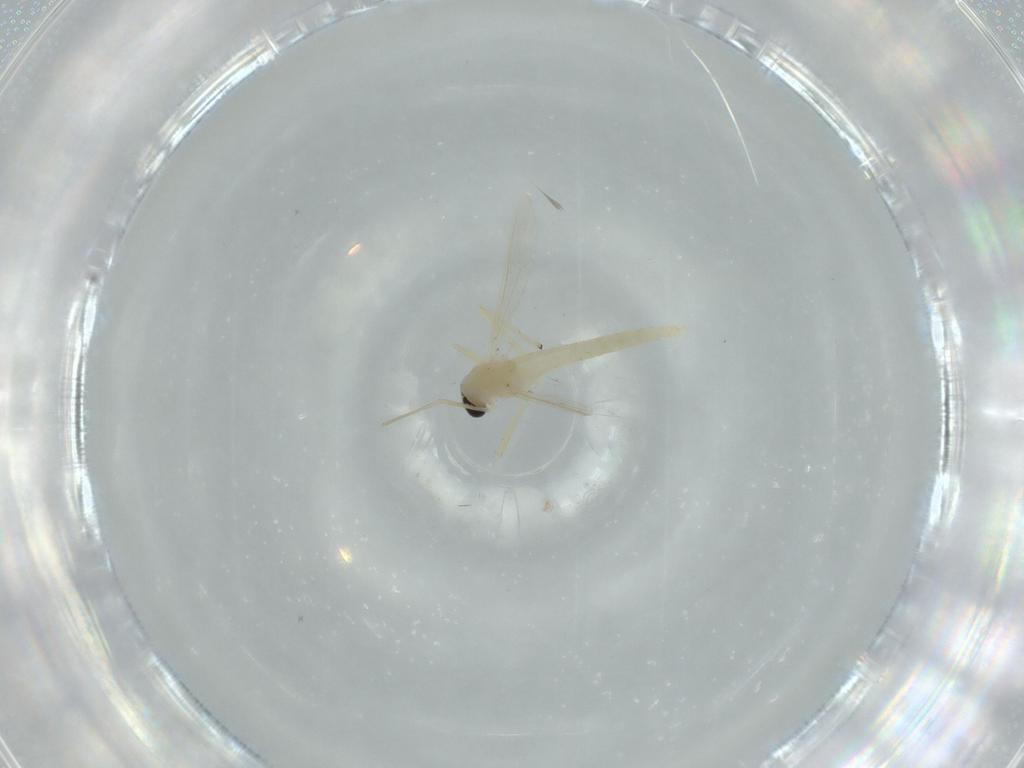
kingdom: Animalia
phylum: Arthropoda
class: Insecta
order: Diptera
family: Chironomidae
